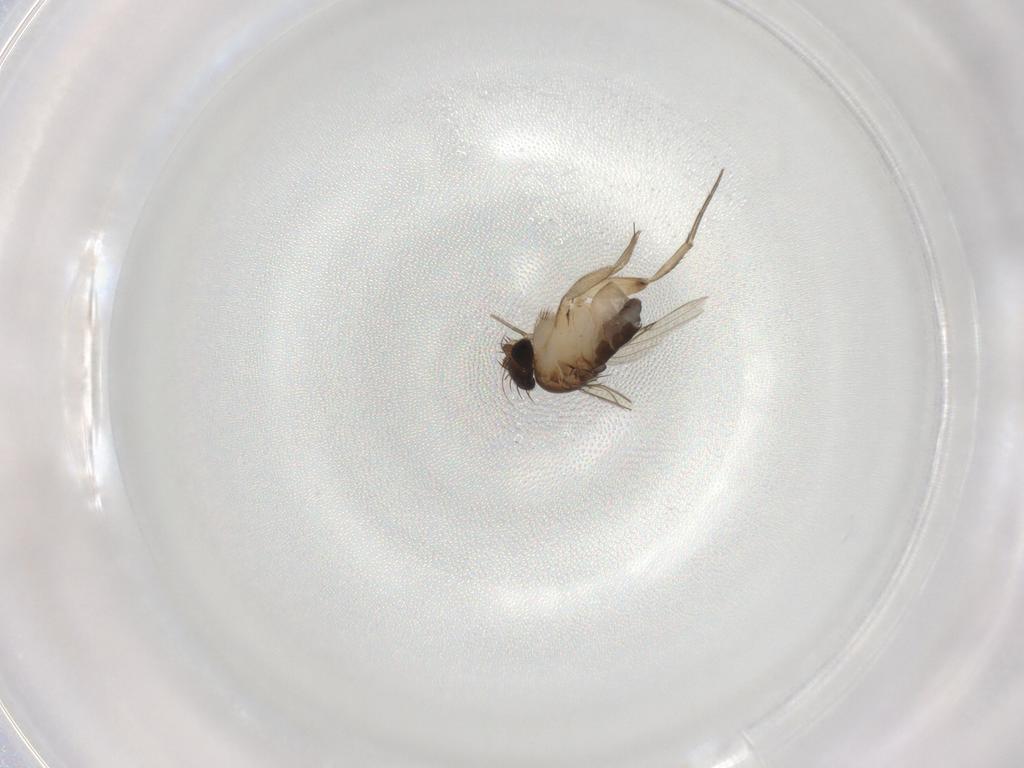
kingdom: Animalia
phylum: Arthropoda
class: Insecta
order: Diptera
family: Phoridae
